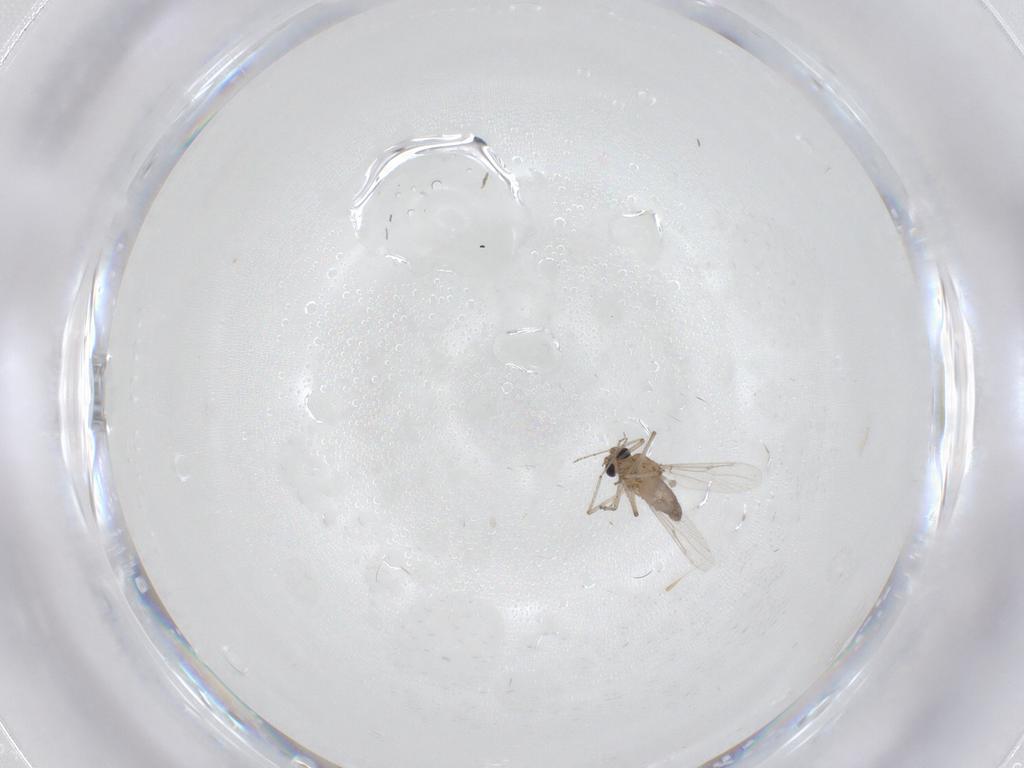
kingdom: Animalia
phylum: Arthropoda
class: Insecta
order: Diptera
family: Ceratopogonidae
